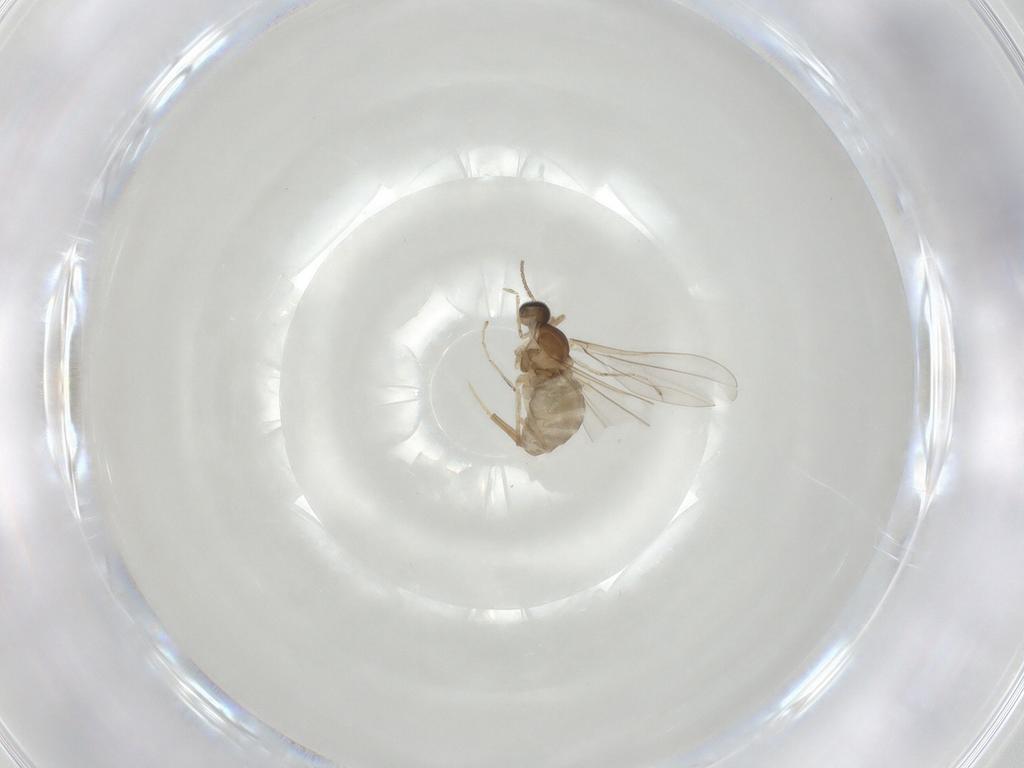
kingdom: Animalia
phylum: Arthropoda
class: Insecta
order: Diptera
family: Cecidomyiidae
